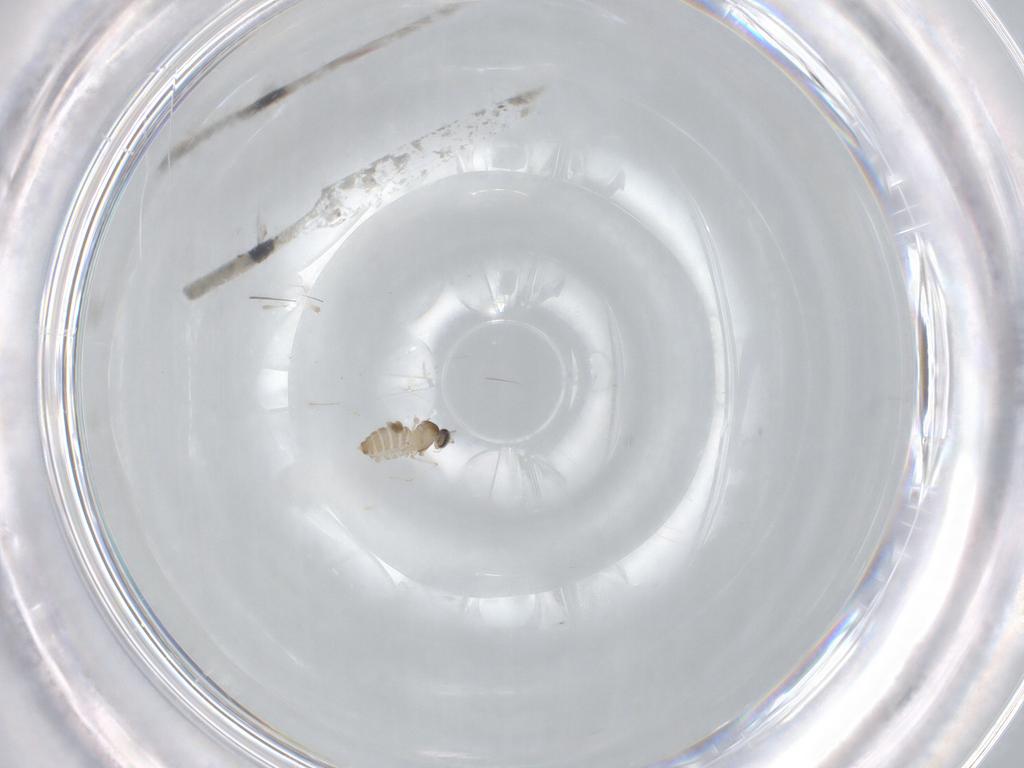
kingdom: Animalia
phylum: Arthropoda
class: Insecta
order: Diptera
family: Cecidomyiidae
